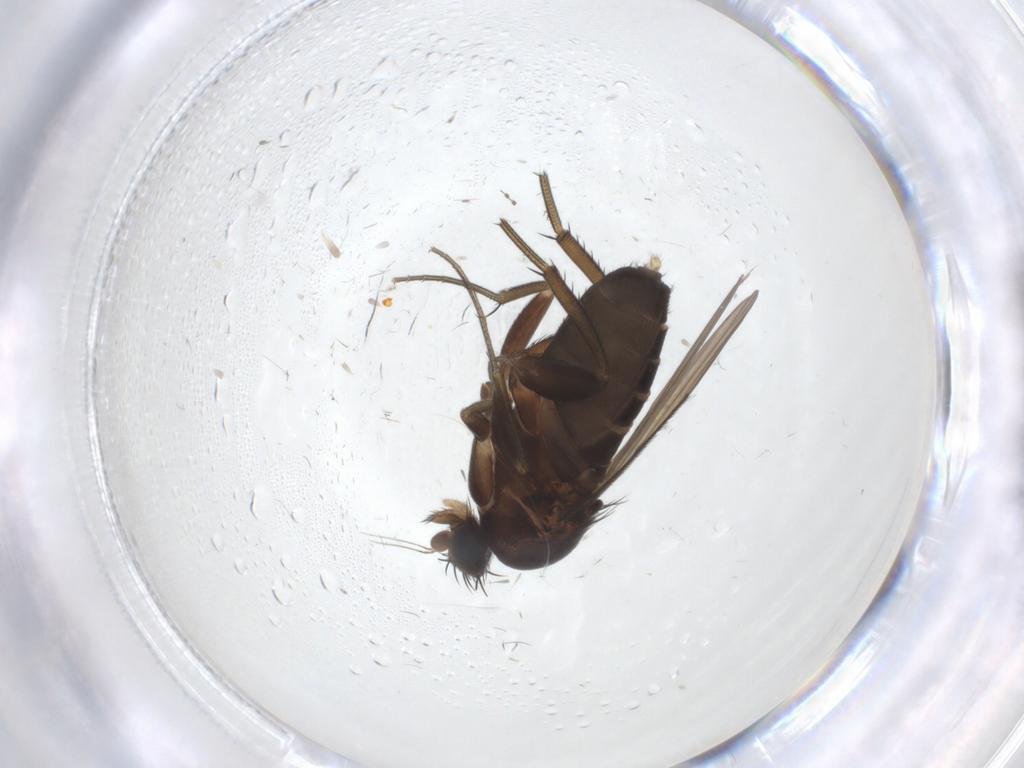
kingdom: Animalia
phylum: Arthropoda
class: Insecta
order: Diptera
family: Phoridae
